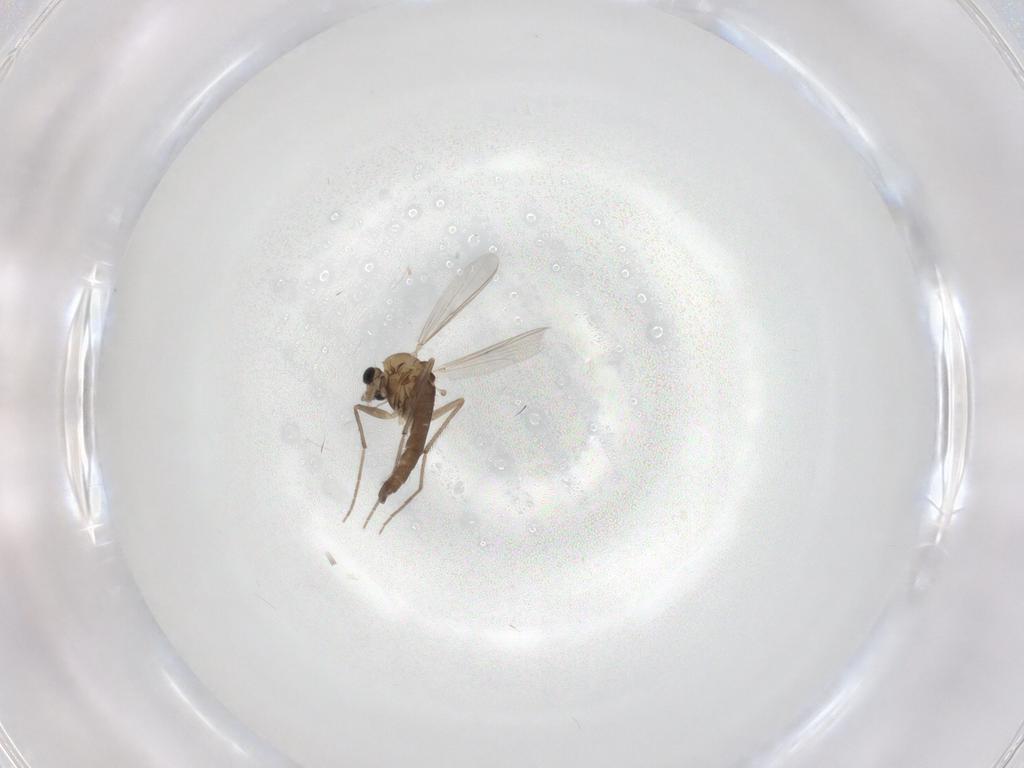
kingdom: Animalia
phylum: Arthropoda
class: Insecta
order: Diptera
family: Chironomidae
